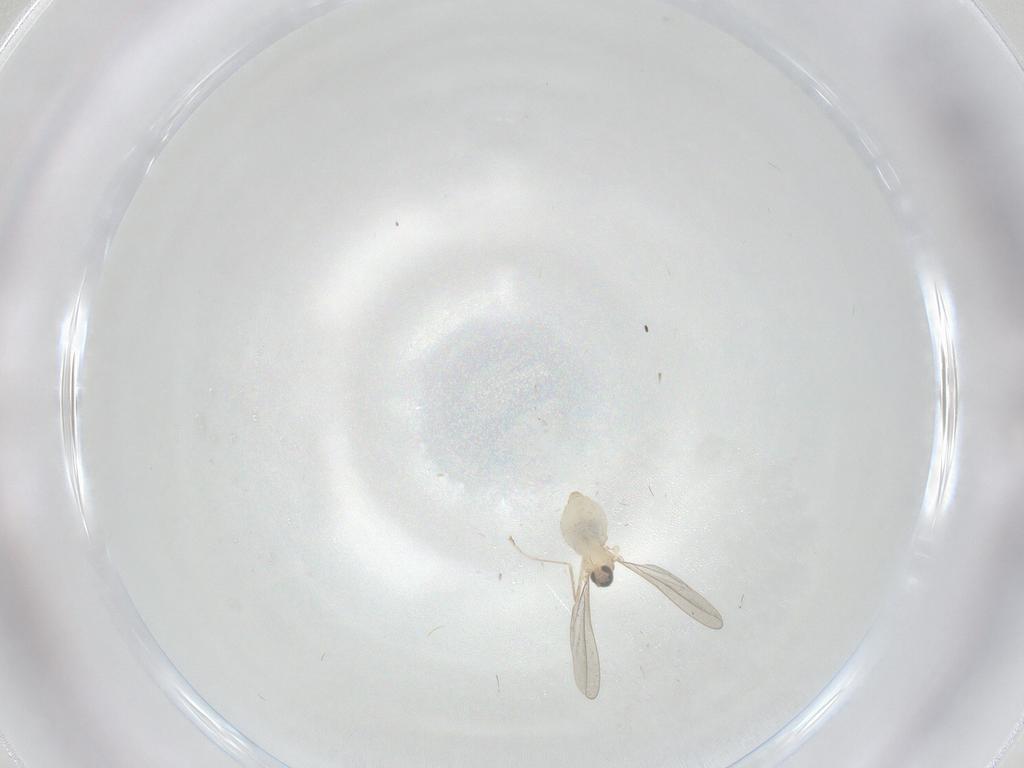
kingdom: Animalia
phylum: Arthropoda
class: Insecta
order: Diptera
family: Cecidomyiidae
